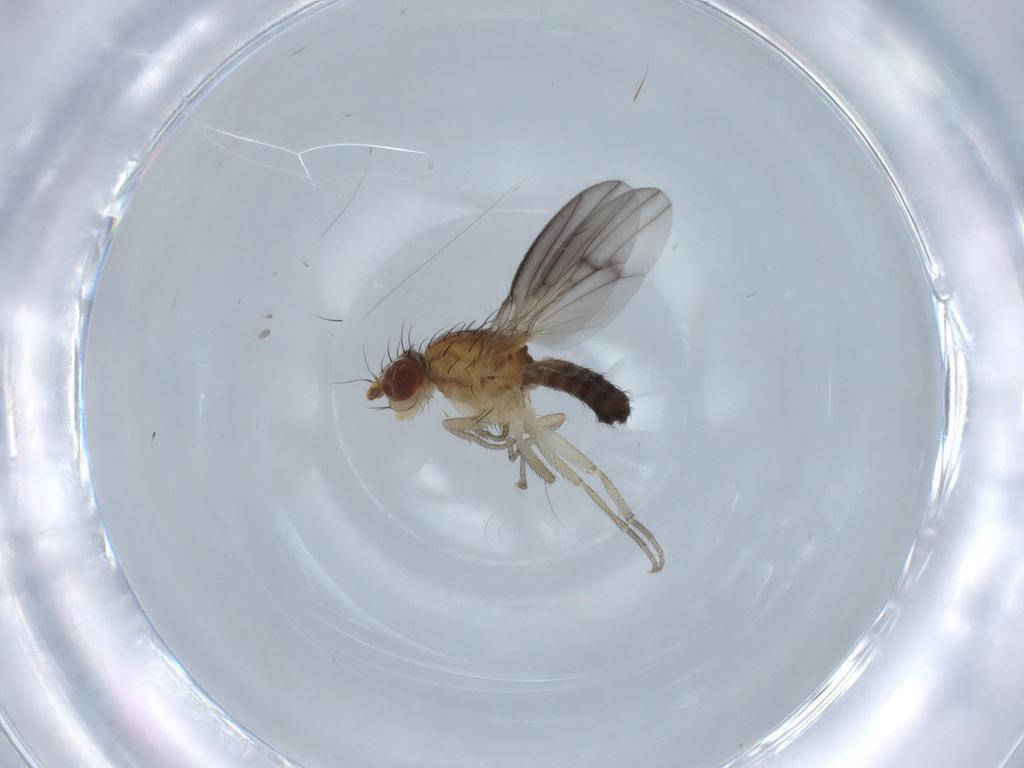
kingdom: Animalia
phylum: Arthropoda
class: Insecta
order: Diptera
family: Heleomyzidae
